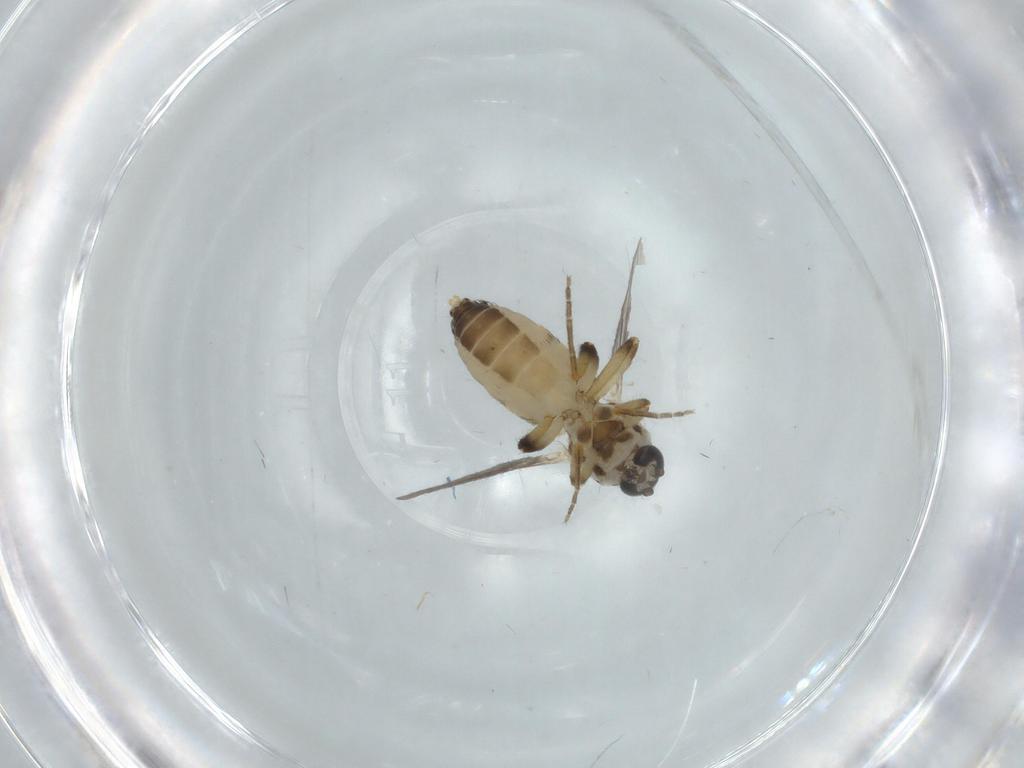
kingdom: Animalia
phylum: Arthropoda
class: Insecta
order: Diptera
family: Ceratopogonidae
